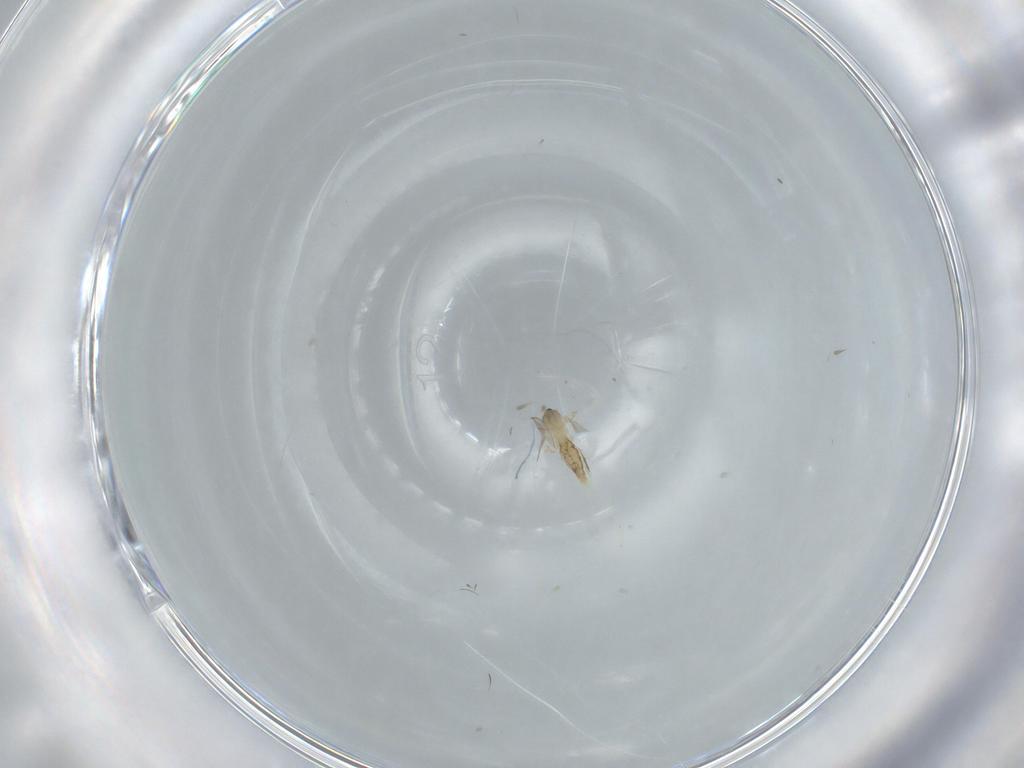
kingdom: Animalia
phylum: Arthropoda
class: Insecta
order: Diptera
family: Cecidomyiidae
